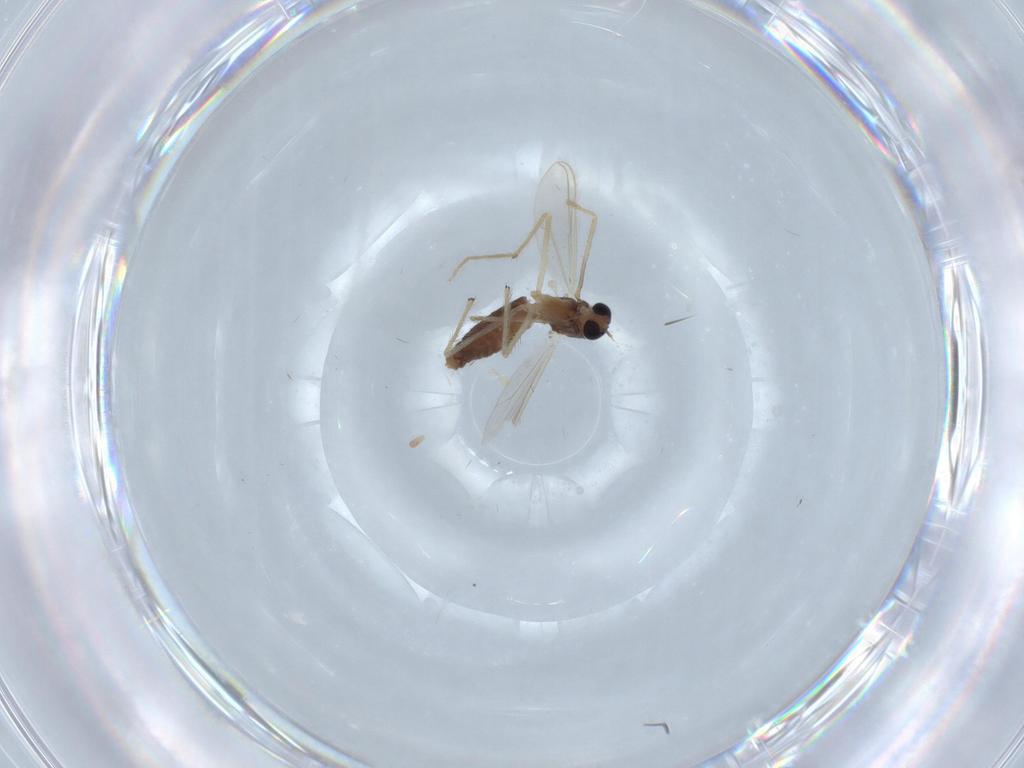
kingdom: Animalia
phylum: Arthropoda
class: Insecta
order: Diptera
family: Chironomidae
